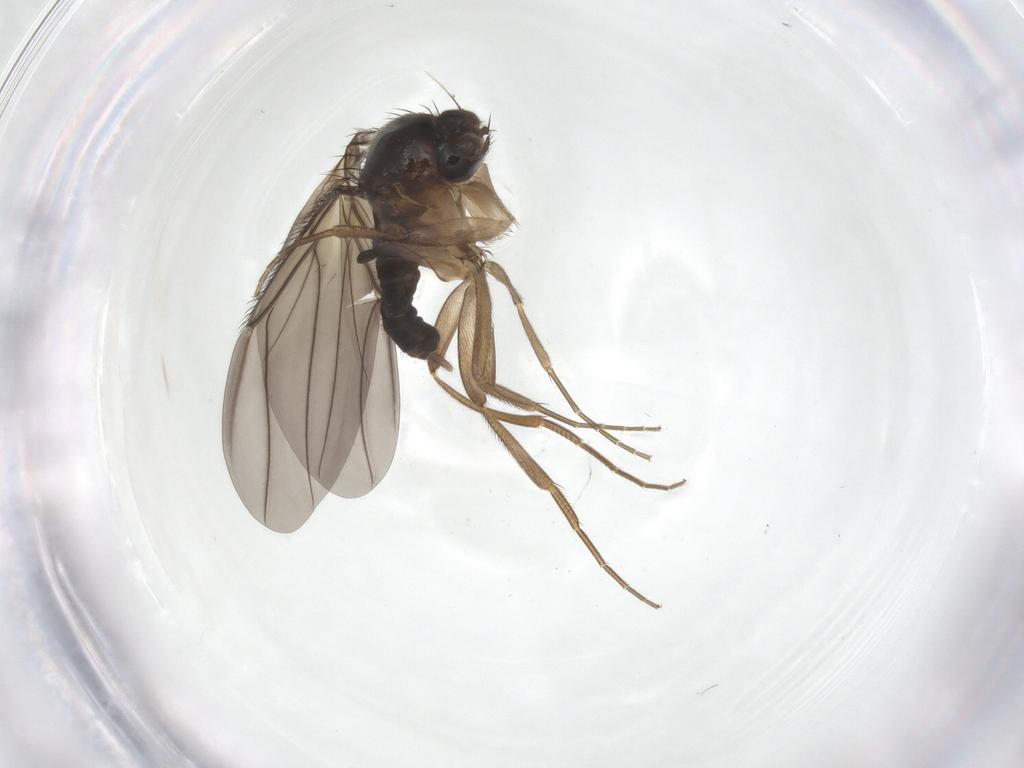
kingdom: Animalia
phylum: Arthropoda
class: Insecta
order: Diptera
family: Phoridae
